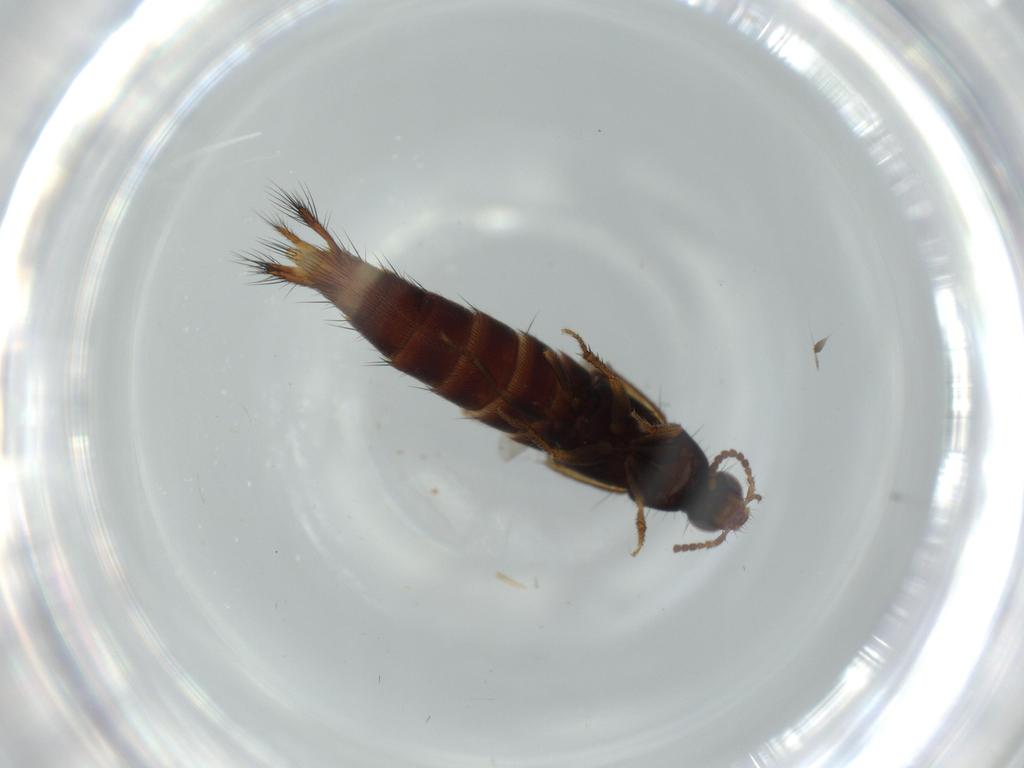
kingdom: Animalia
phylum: Arthropoda
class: Insecta
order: Coleoptera
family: Staphylinidae
